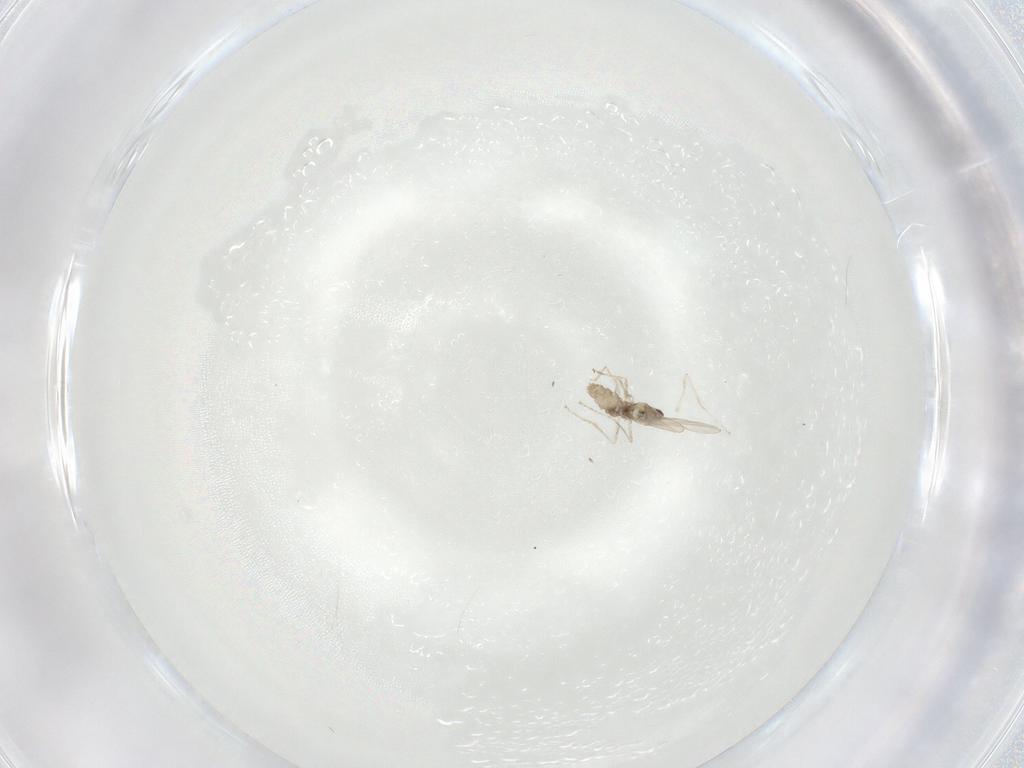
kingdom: Animalia
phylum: Arthropoda
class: Insecta
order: Diptera
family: Cecidomyiidae
